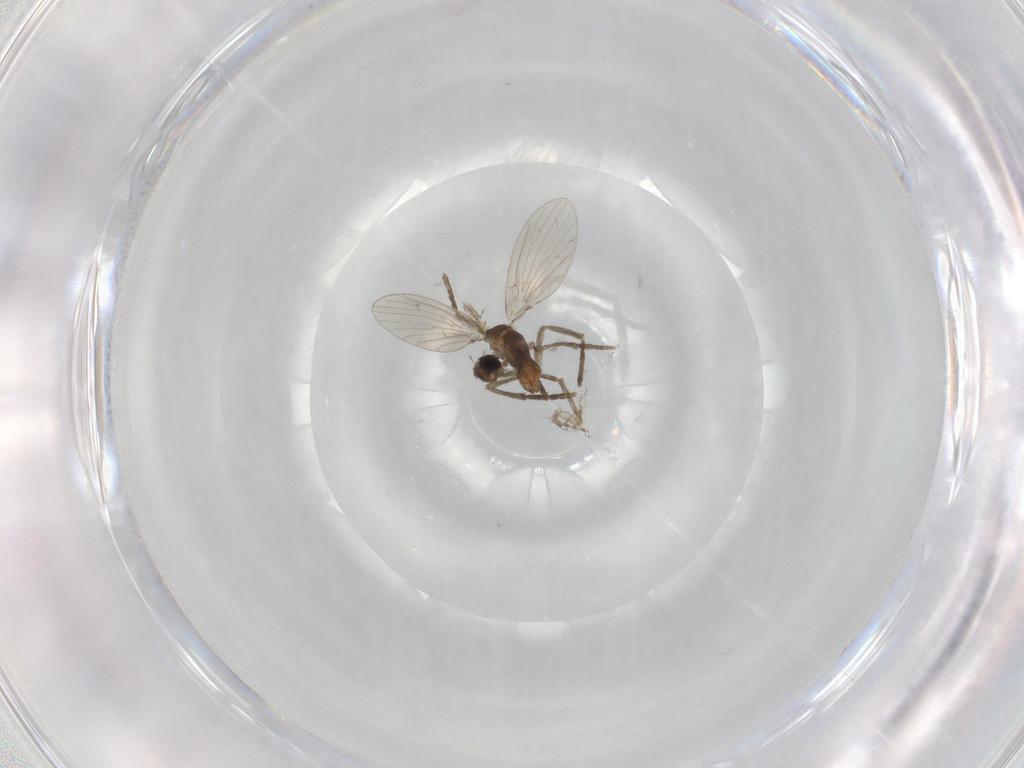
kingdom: Animalia
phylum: Arthropoda
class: Insecta
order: Diptera
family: Cecidomyiidae
